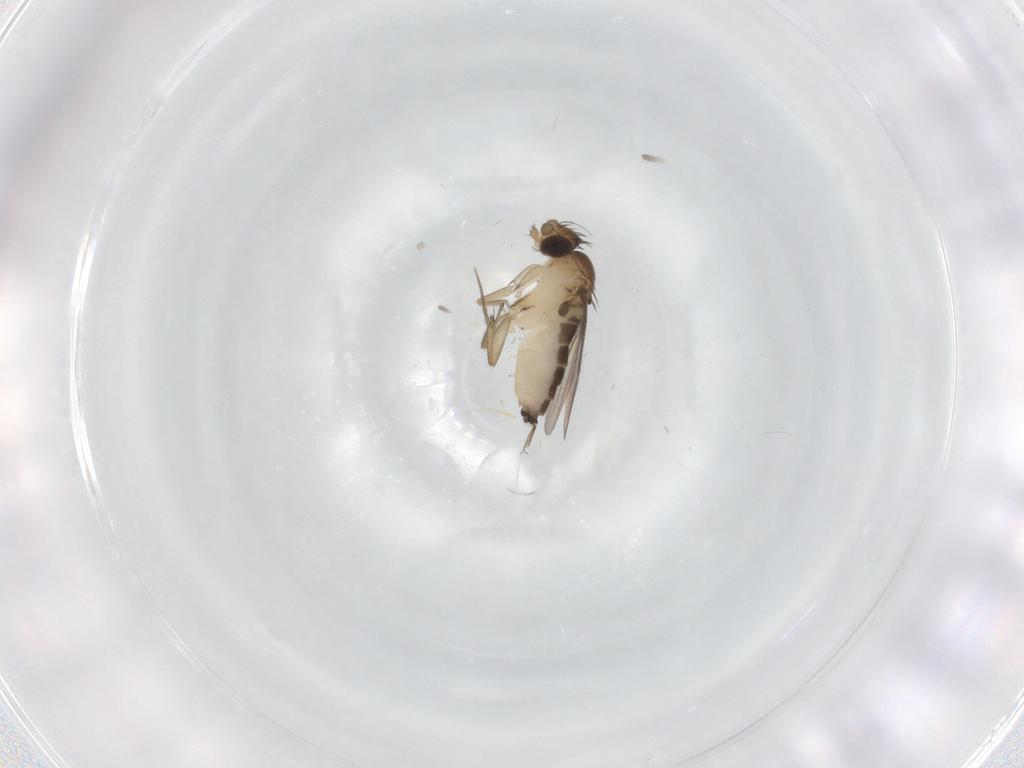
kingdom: Animalia
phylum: Arthropoda
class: Insecta
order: Diptera
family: Phoridae
